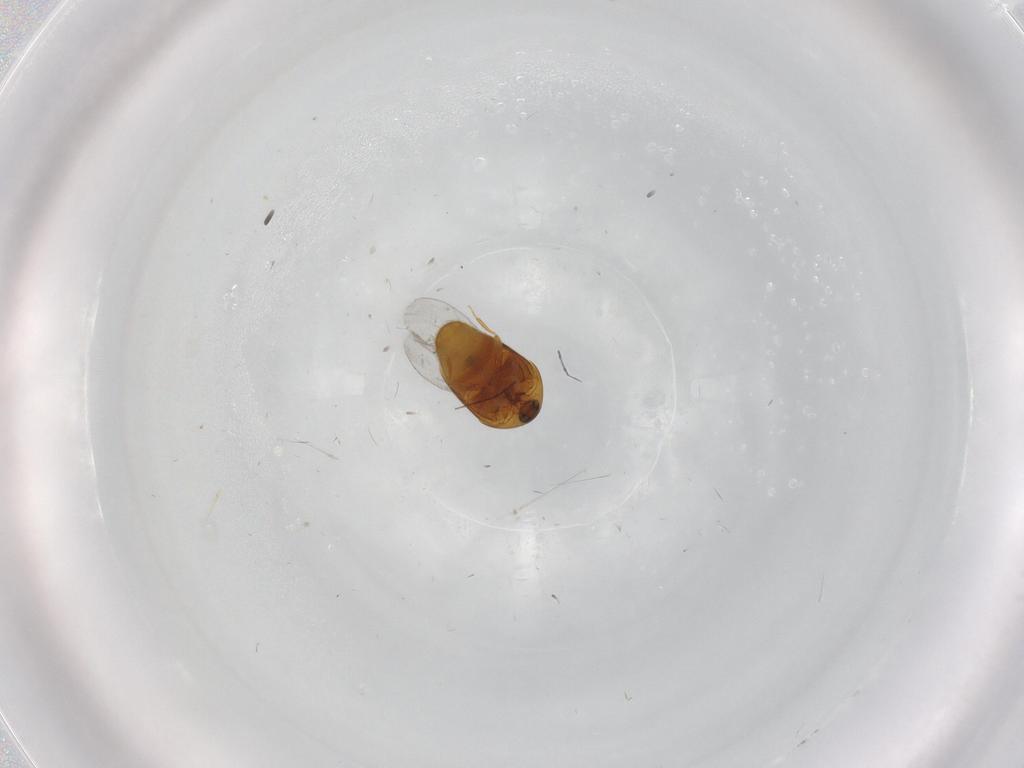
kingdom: Animalia
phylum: Arthropoda
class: Insecta
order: Coleoptera
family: Corylophidae
